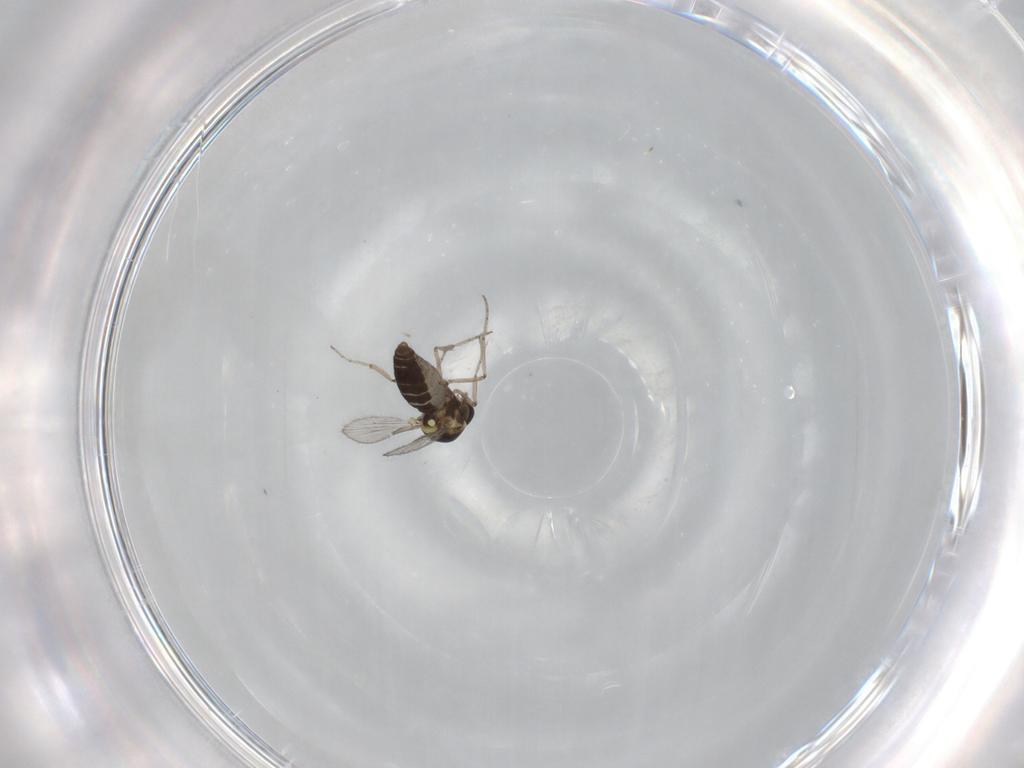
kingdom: Animalia
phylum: Arthropoda
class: Insecta
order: Diptera
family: Ceratopogonidae
